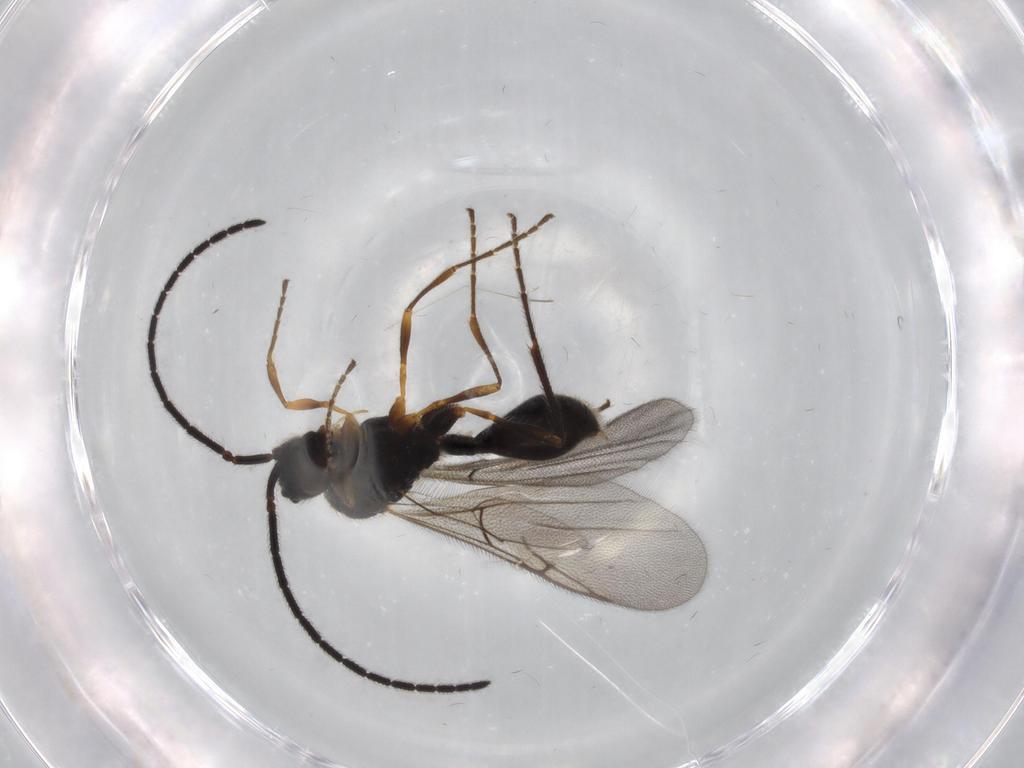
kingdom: Animalia
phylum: Arthropoda
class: Insecta
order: Hymenoptera
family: Diapriidae
